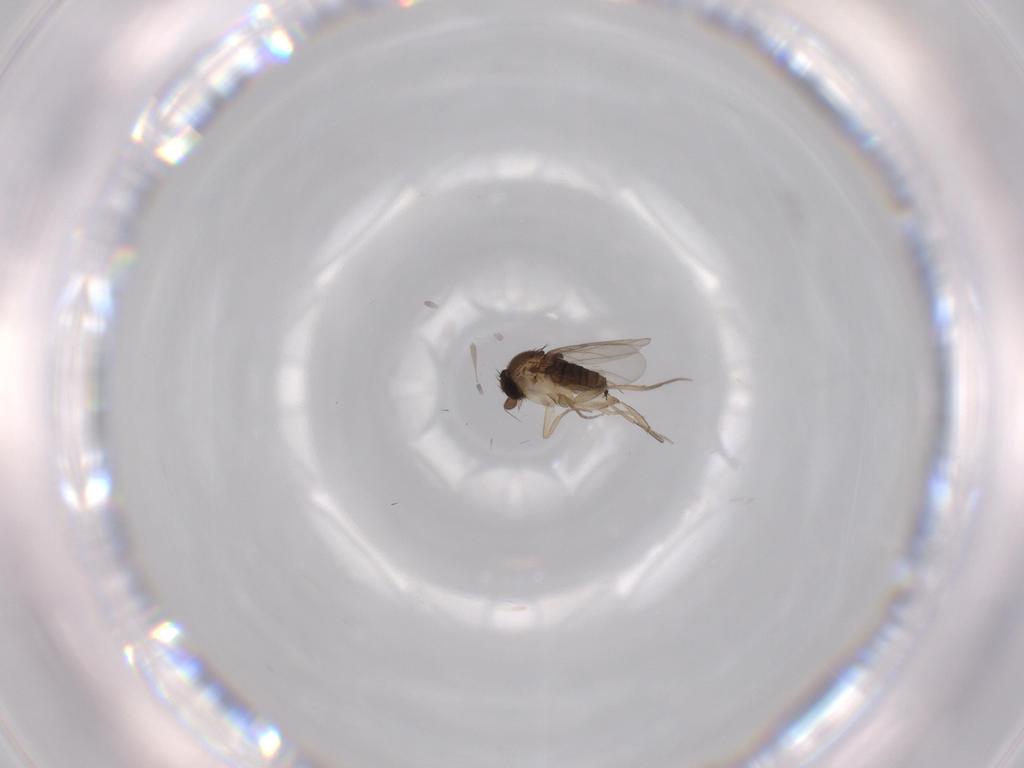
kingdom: Animalia
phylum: Arthropoda
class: Insecta
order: Diptera
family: Phoridae
